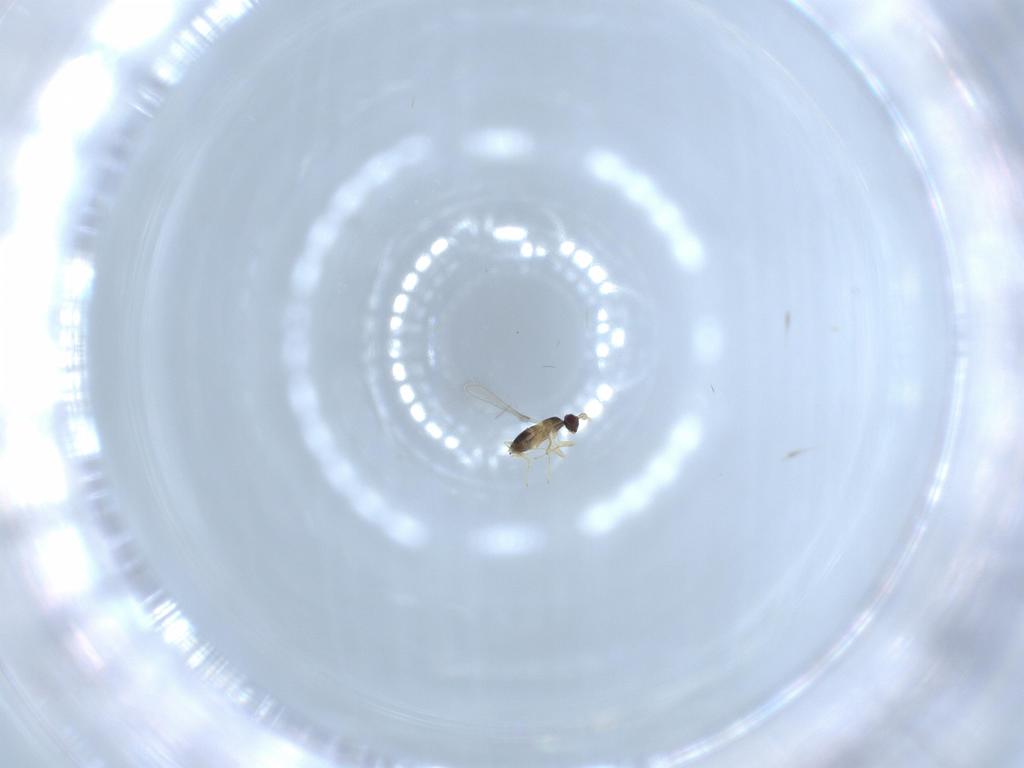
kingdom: Animalia
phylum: Arthropoda
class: Insecta
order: Hymenoptera
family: Mymaridae
